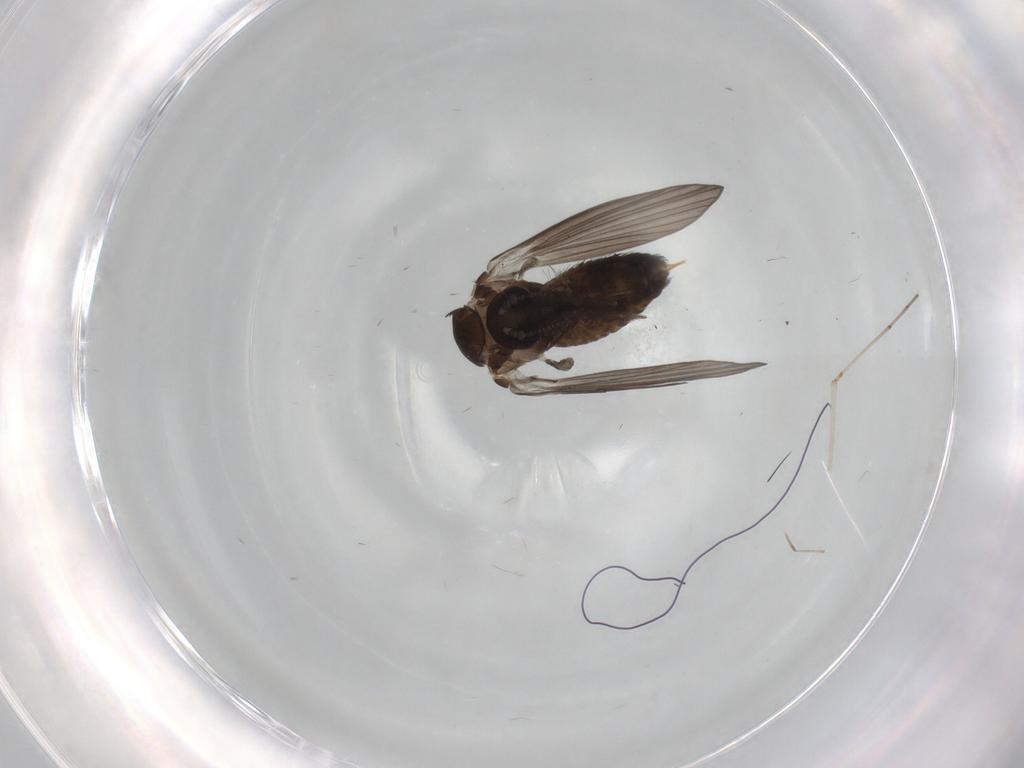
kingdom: Animalia
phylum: Arthropoda
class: Insecta
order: Diptera
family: Psychodidae
